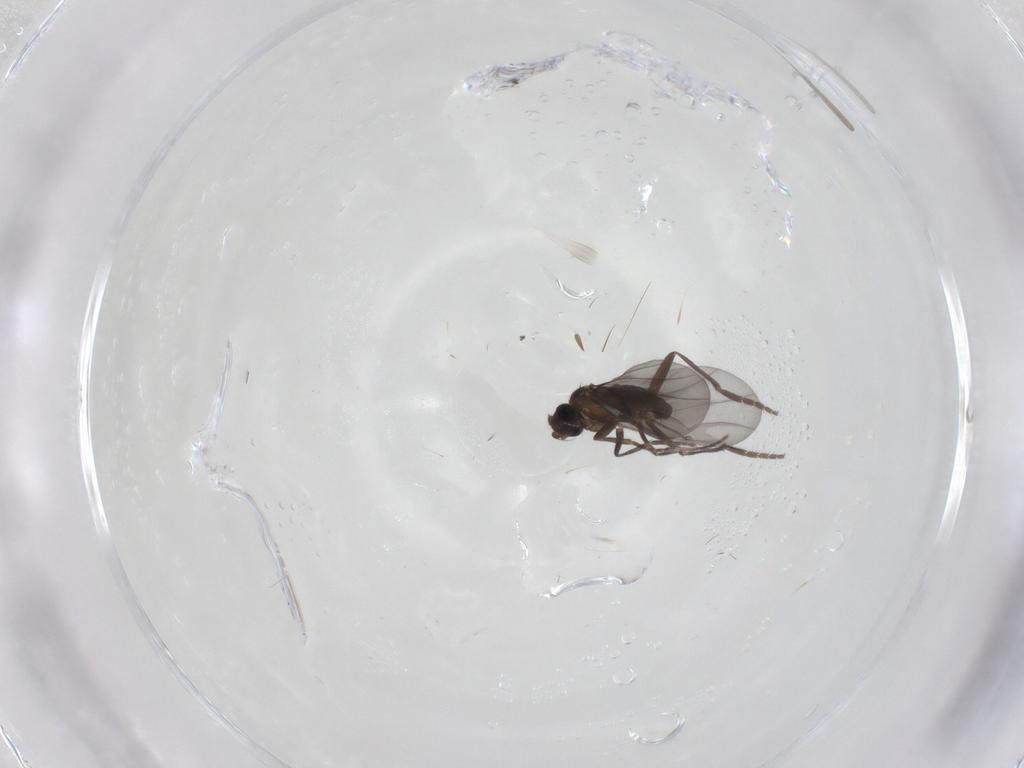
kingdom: Animalia
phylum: Arthropoda
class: Insecta
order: Diptera
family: Phoridae
